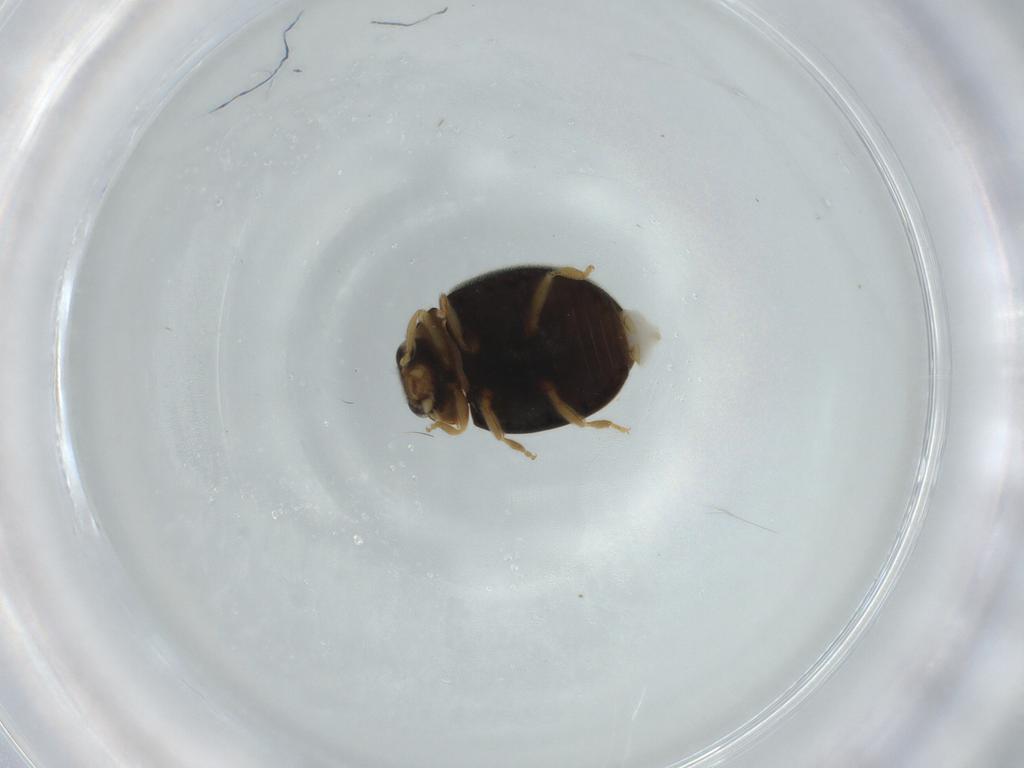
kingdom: Animalia
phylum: Arthropoda
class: Insecta
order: Coleoptera
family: Coccinellidae
